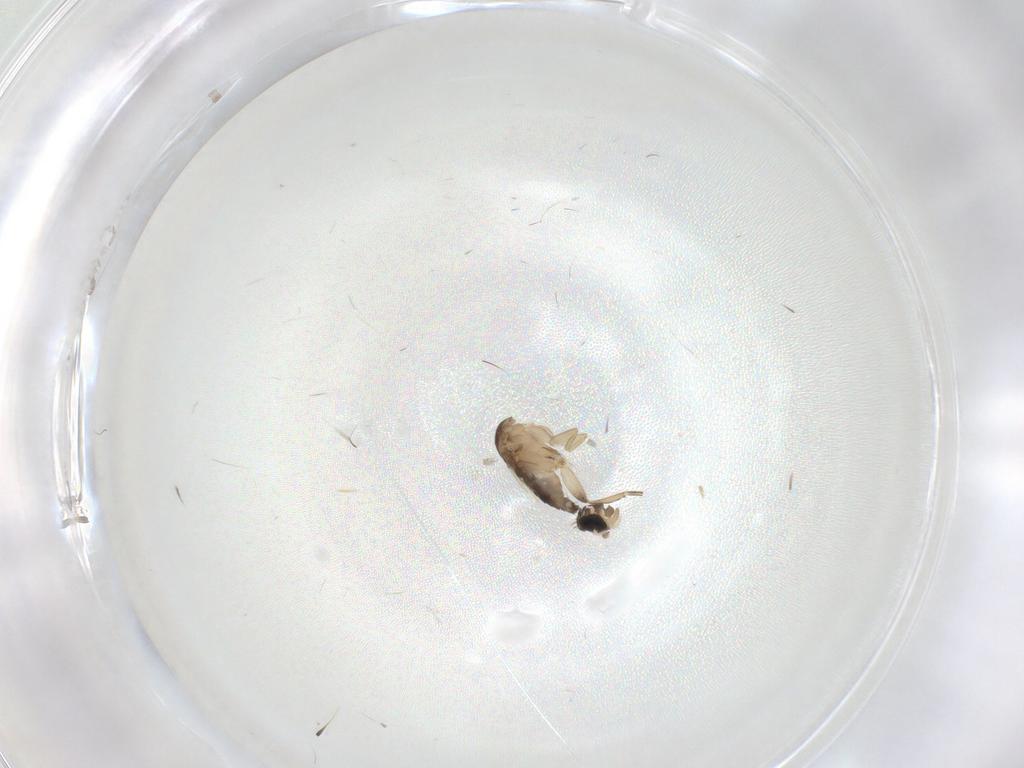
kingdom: Animalia
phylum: Arthropoda
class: Insecta
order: Diptera
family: Phoridae
